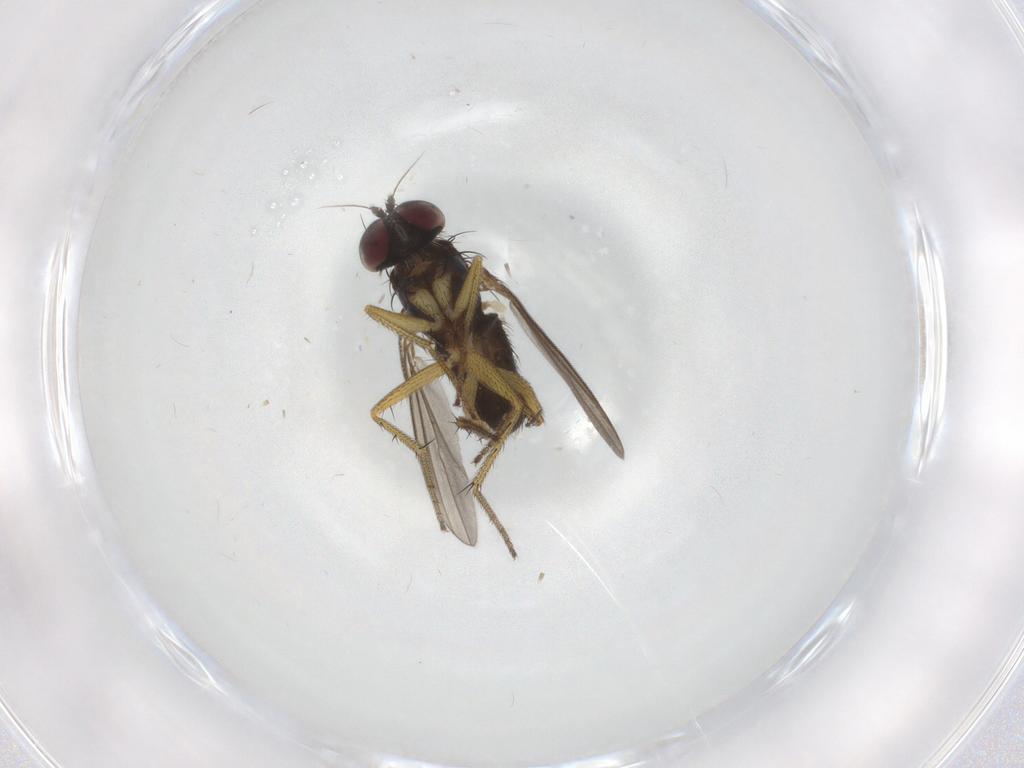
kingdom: Animalia
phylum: Arthropoda
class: Insecta
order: Diptera
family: Dolichopodidae
